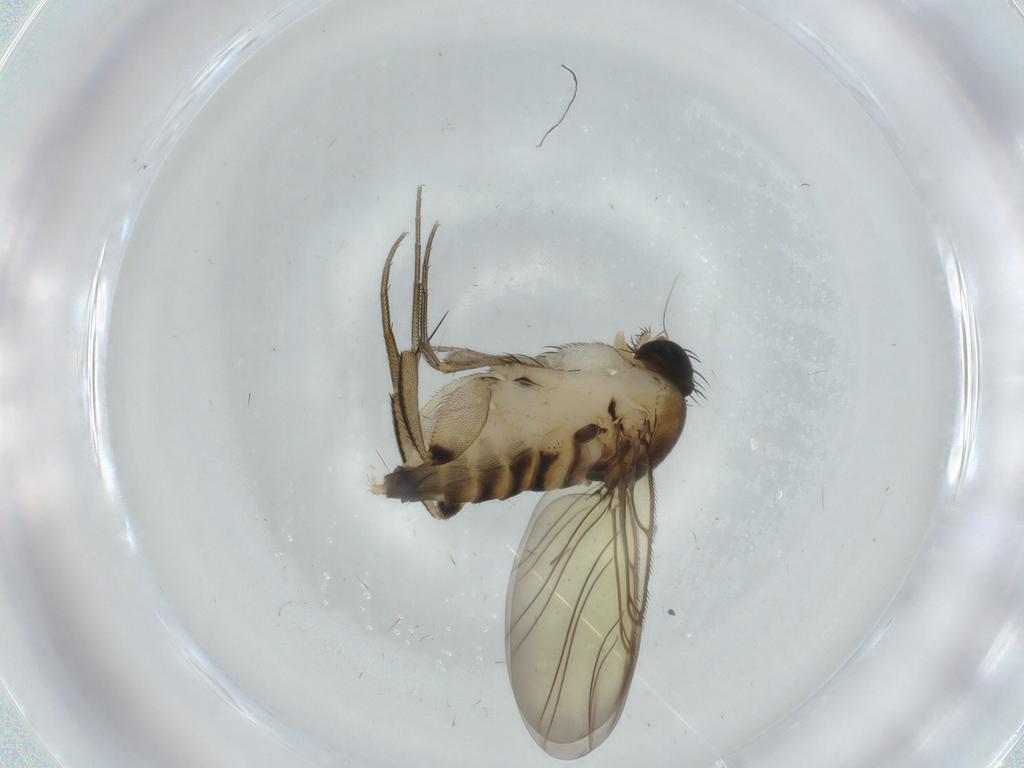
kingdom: Animalia
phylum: Arthropoda
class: Insecta
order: Diptera
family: Phoridae
